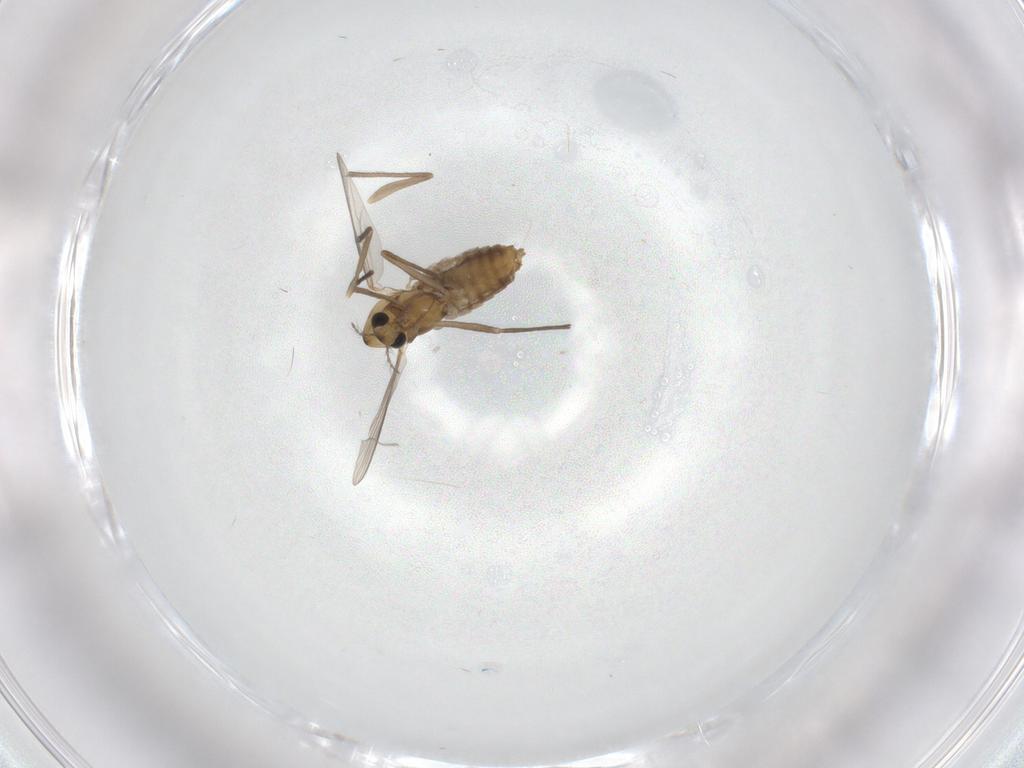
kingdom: Animalia
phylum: Arthropoda
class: Insecta
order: Diptera
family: Chironomidae
